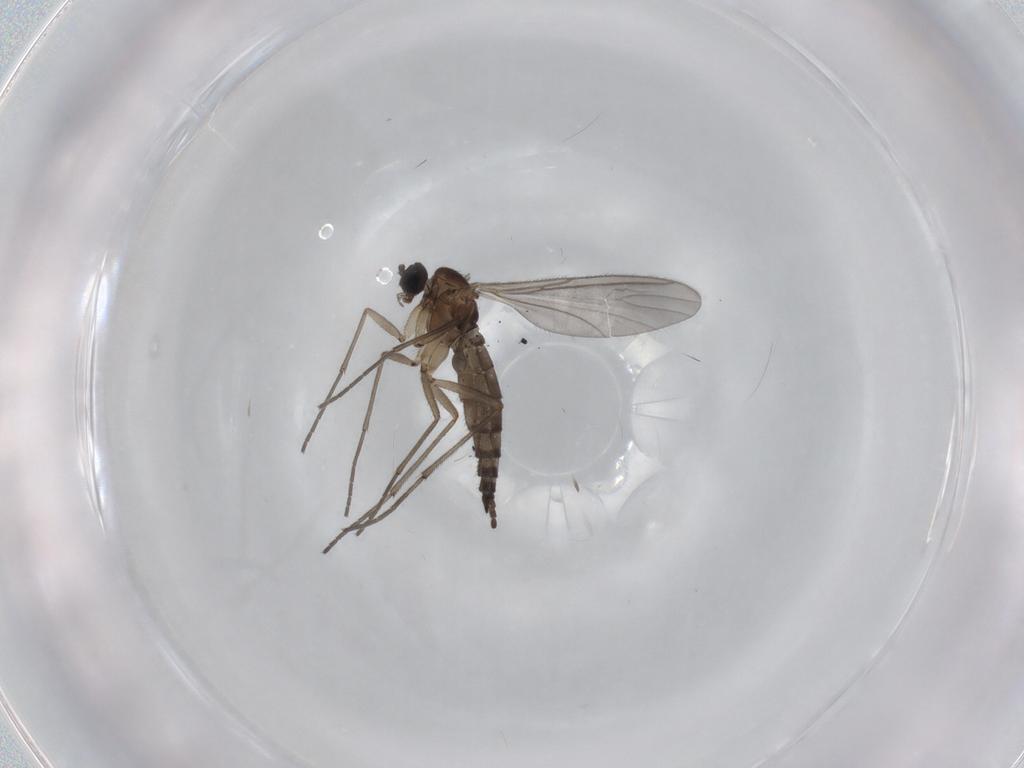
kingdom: Animalia
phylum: Arthropoda
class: Insecta
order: Diptera
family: Sciaridae
